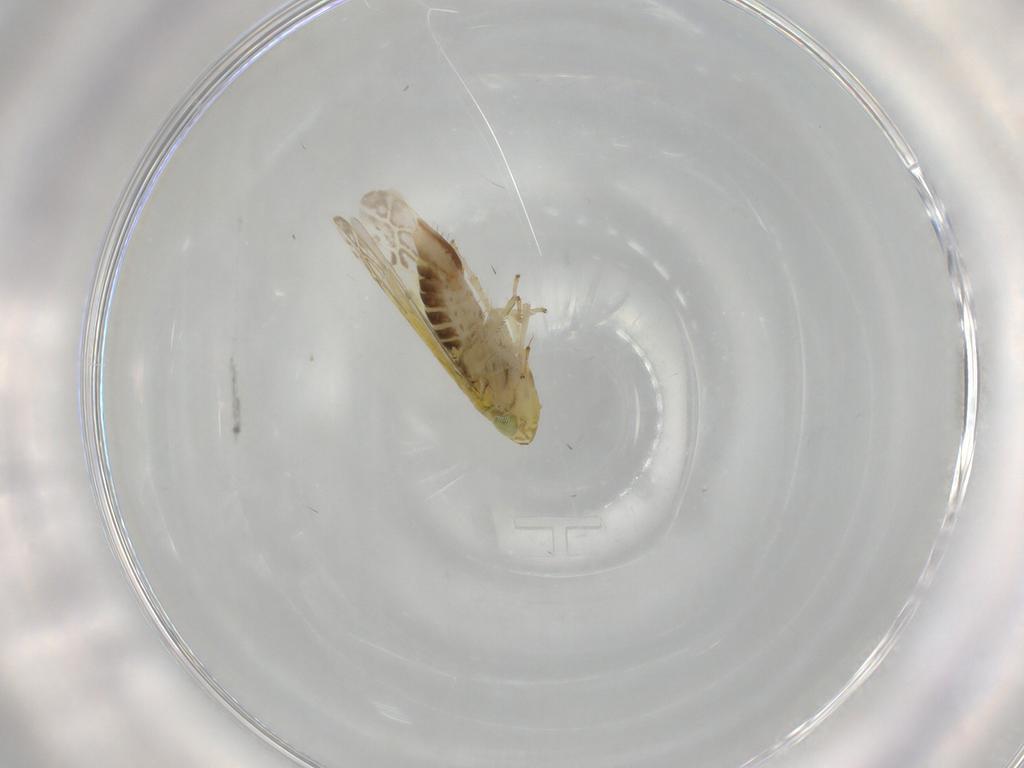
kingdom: Animalia
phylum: Arthropoda
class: Insecta
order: Hemiptera
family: Cicadellidae
